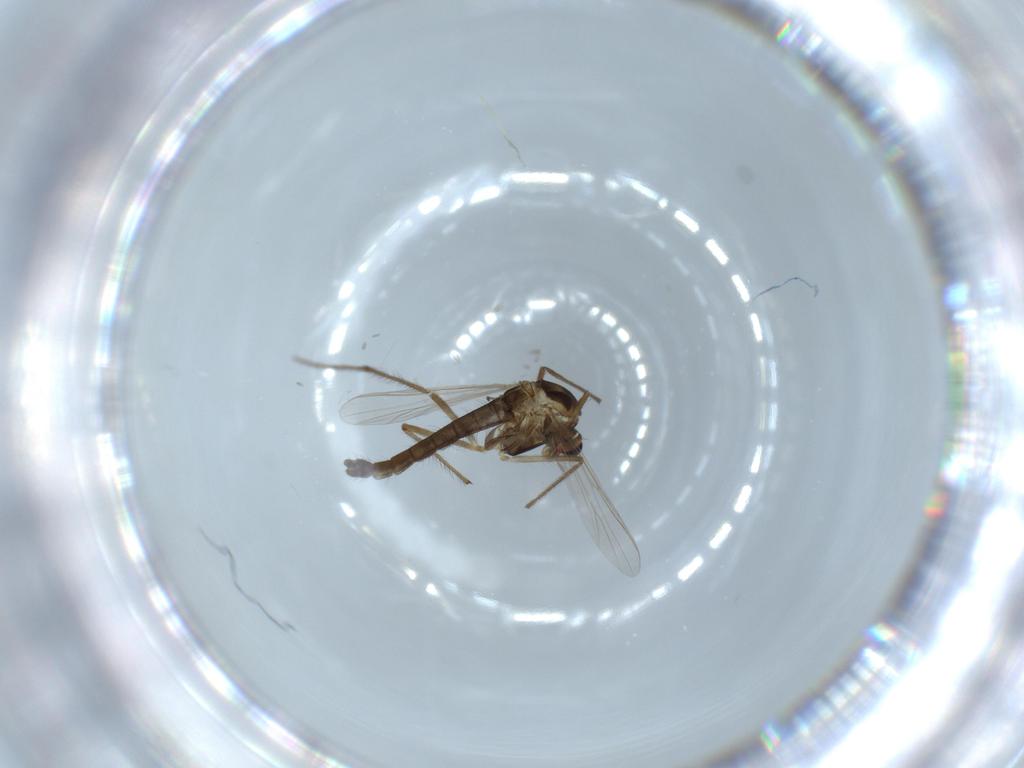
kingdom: Animalia
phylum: Arthropoda
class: Insecta
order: Diptera
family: Chironomidae
